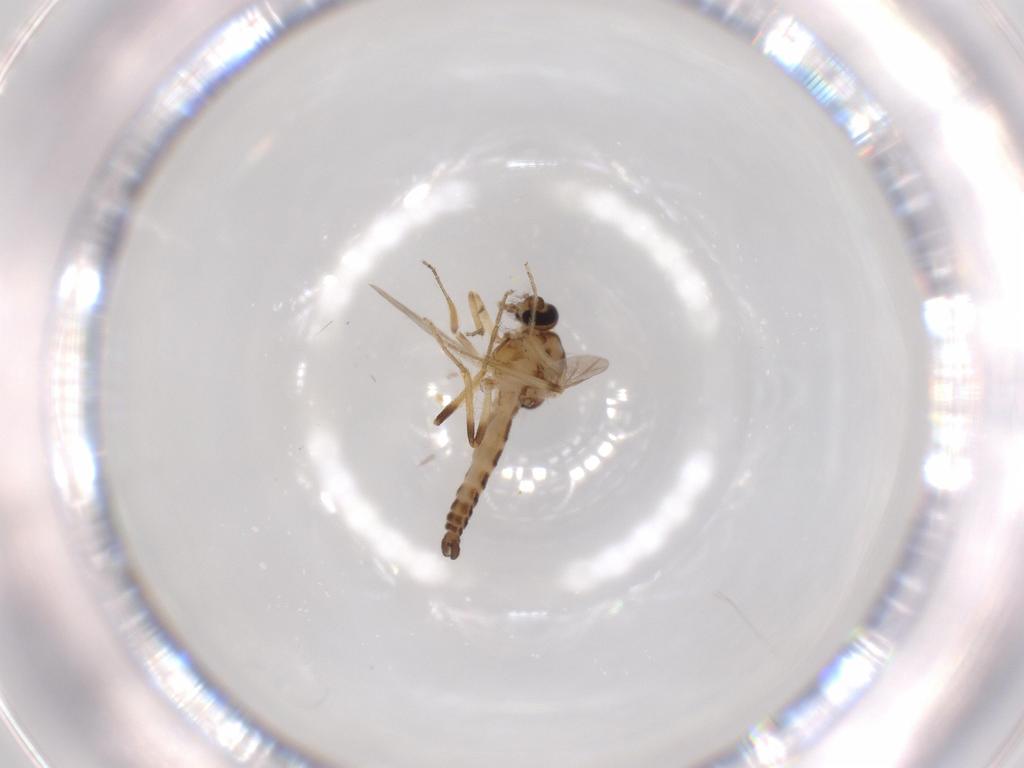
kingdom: Animalia
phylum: Arthropoda
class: Insecta
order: Diptera
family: Ceratopogonidae
